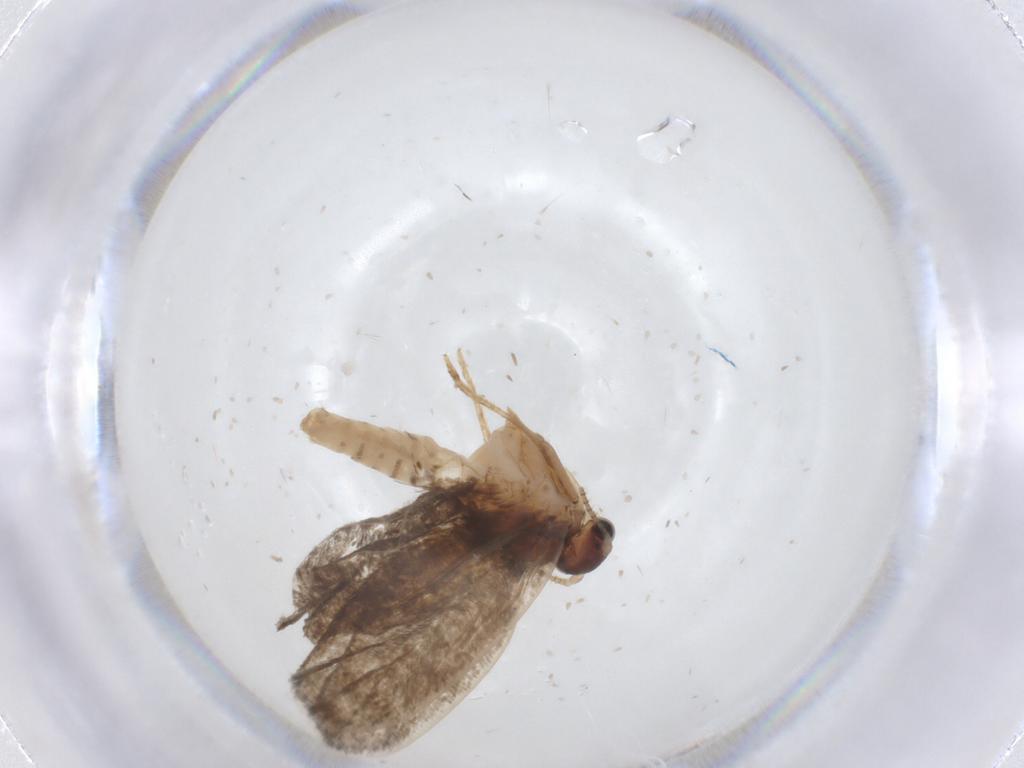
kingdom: Animalia
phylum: Arthropoda
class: Insecta
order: Lepidoptera
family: Psychidae
